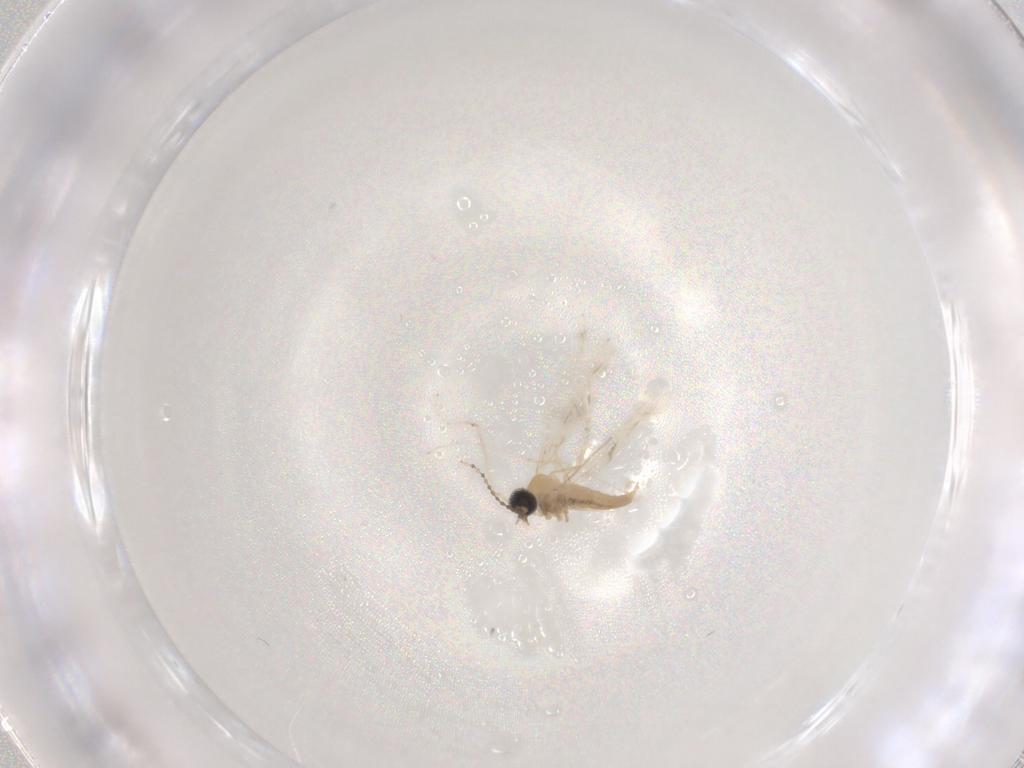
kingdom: Animalia
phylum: Arthropoda
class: Insecta
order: Diptera
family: Cecidomyiidae
